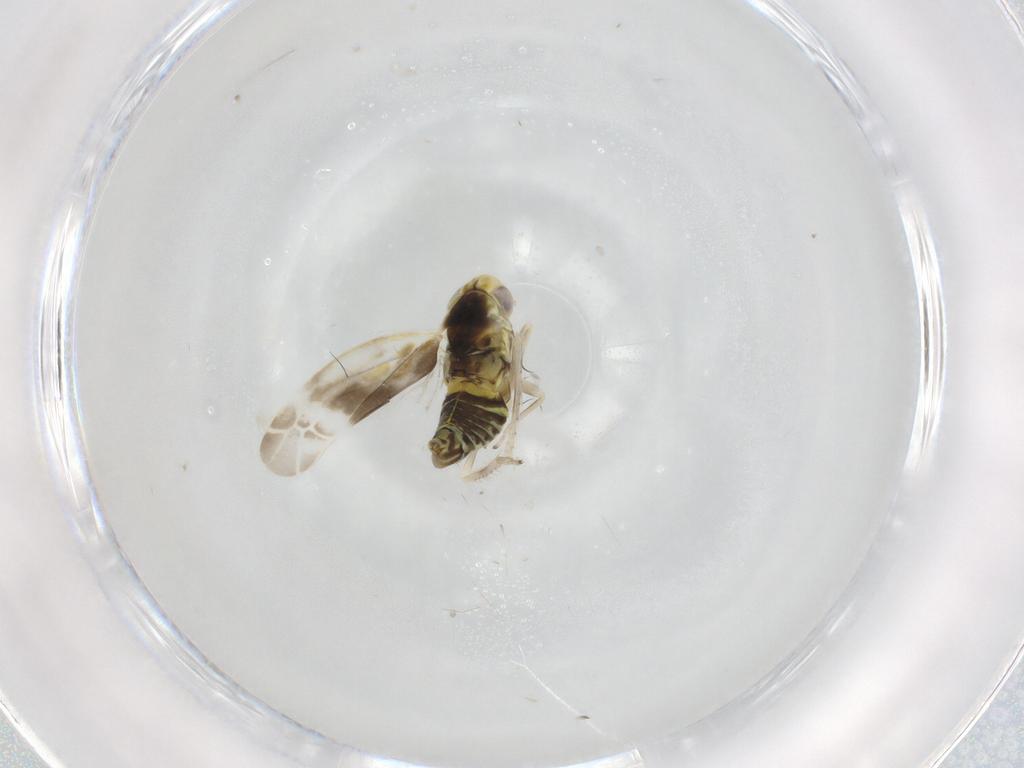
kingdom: Animalia
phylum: Arthropoda
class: Insecta
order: Hemiptera
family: Cicadellidae
